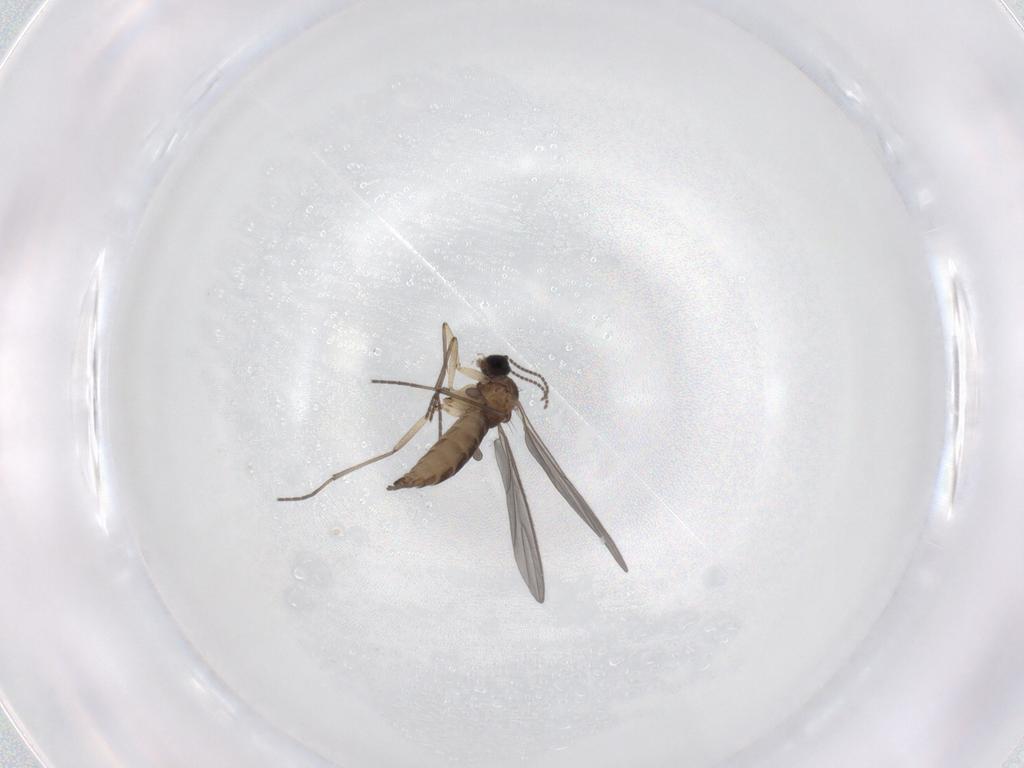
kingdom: Animalia
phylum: Arthropoda
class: Insecta
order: Diptera
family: Sciaridae
